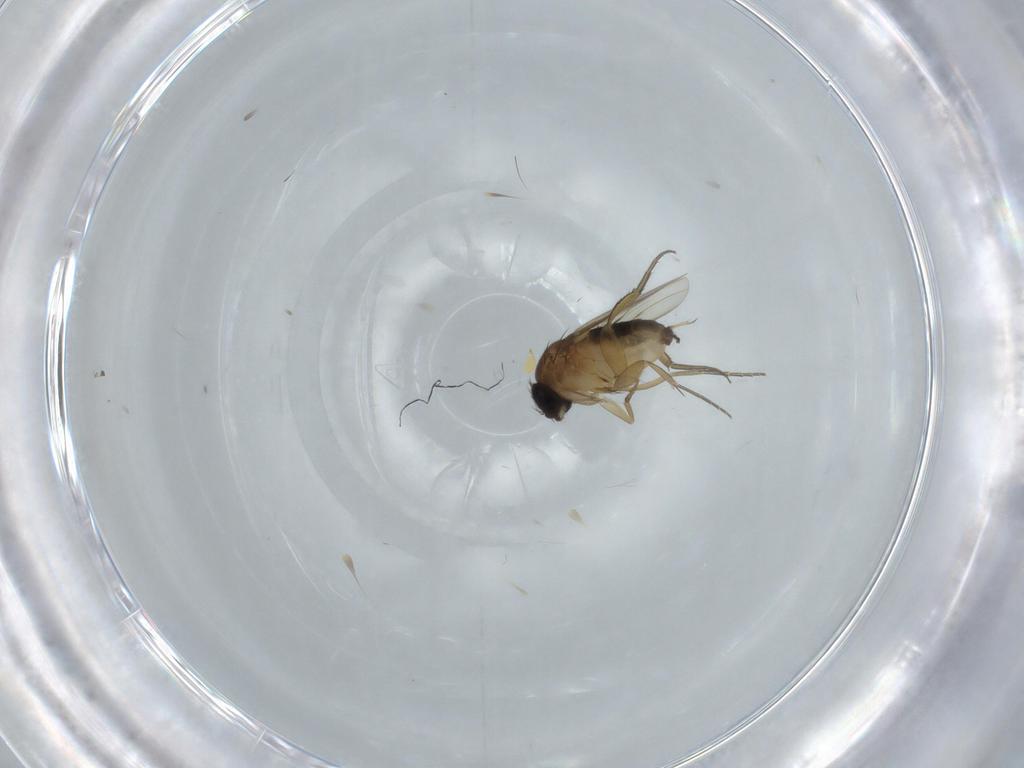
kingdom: Animalia
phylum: Arthropoda
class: Insecta
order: Diptera
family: Phoridae
